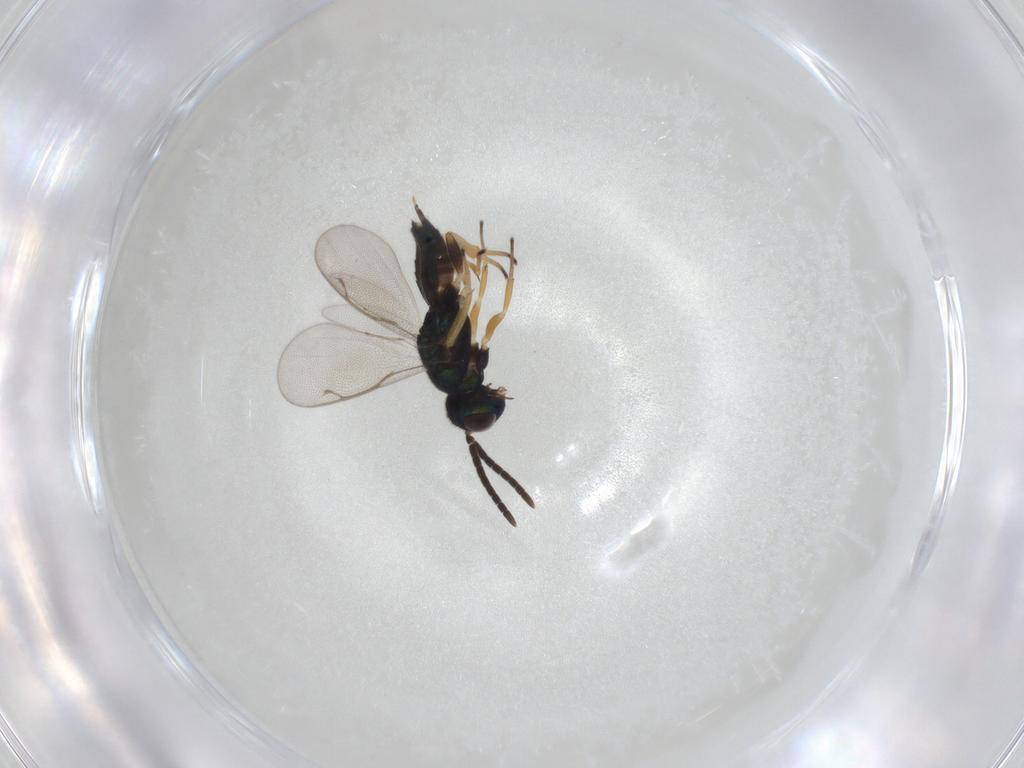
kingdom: Animalia
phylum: Arthropoda
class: Insecta
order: Hymenoptera
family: Eupelmidae
